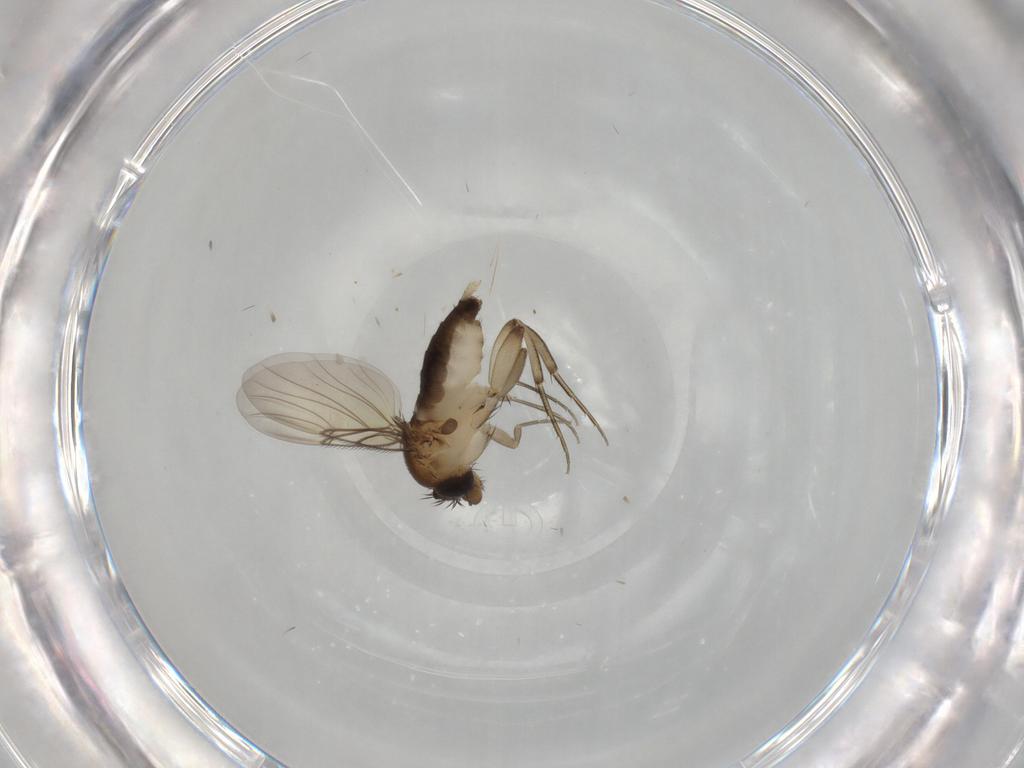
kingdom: Animalia
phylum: Arthropoda
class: Insecta
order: Diptera
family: Phoridae
